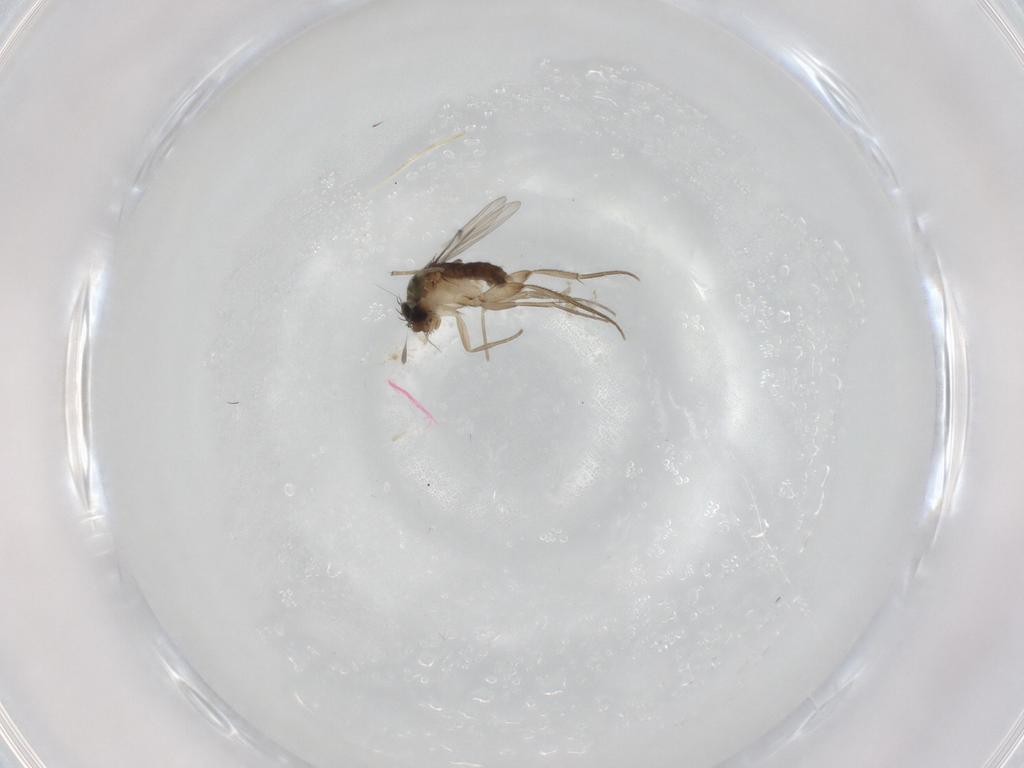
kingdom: Animalia
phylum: Arthropoda
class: Insecta
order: Diptera
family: Phoridae
